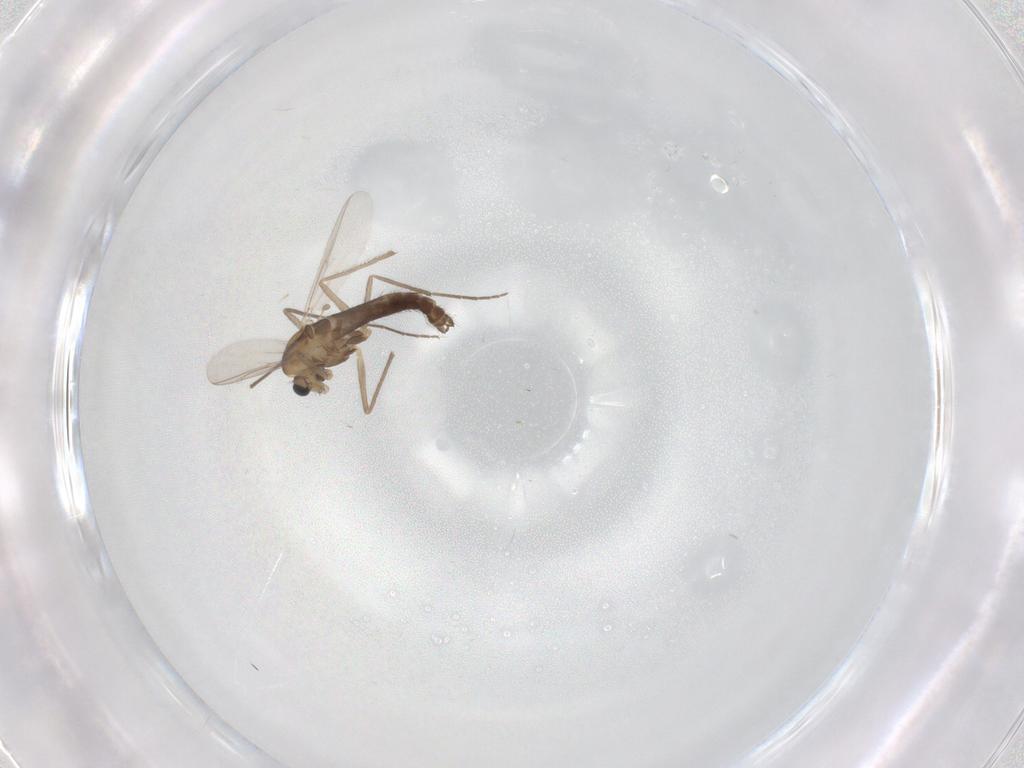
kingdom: Animalia
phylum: Arthropoda
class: Insecta
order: Diptera
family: Chironomidae
